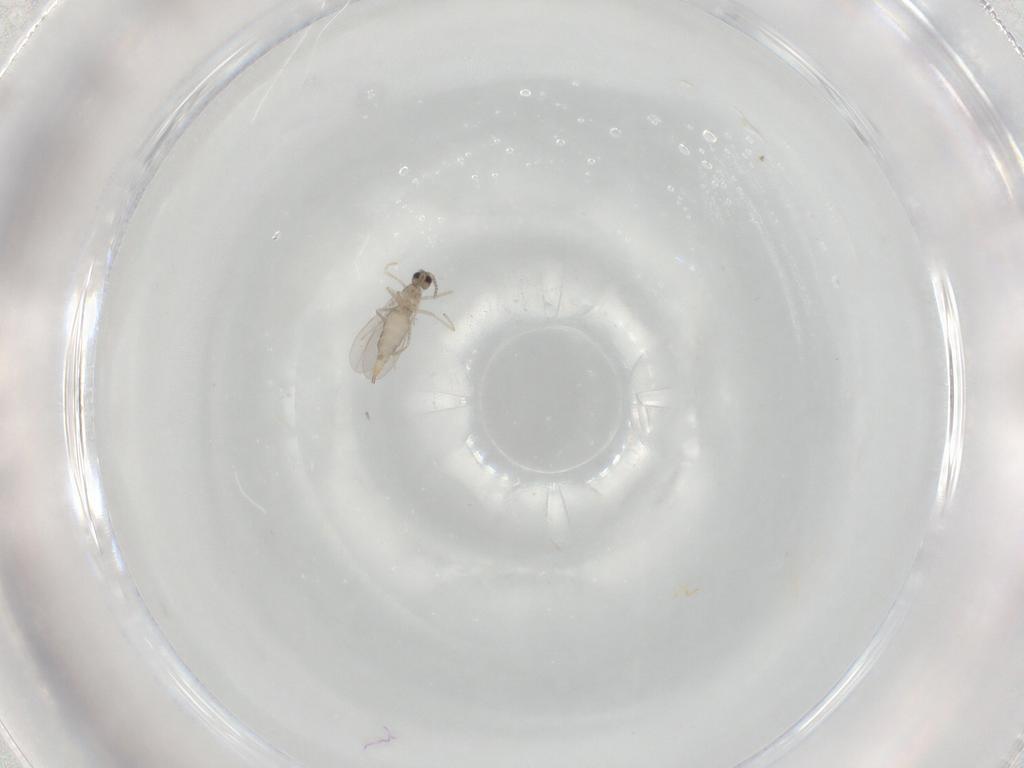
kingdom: Animalia
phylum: Arthropoda
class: Insecta
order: Diptera
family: Cecidomyiidae
